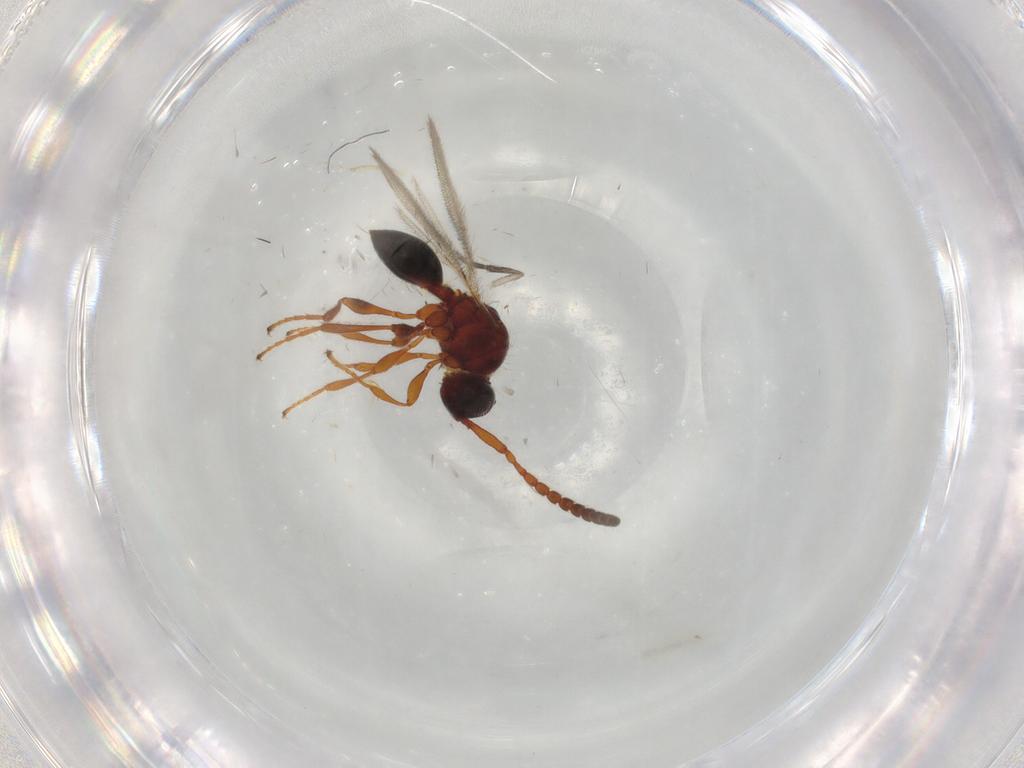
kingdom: Animalia
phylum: Arthropoda
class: Insecta
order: Hymenoptera
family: Diapriidae
